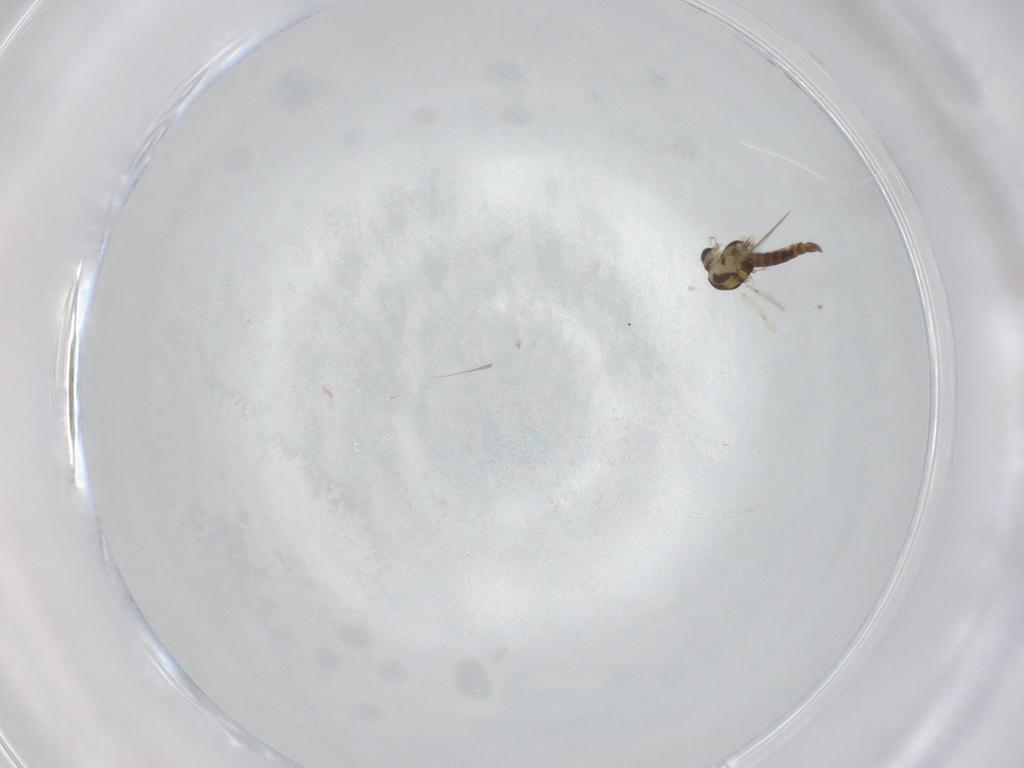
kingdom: Animalia
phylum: Arthropoda
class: Insecta
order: Diptera
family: Chironomidae
